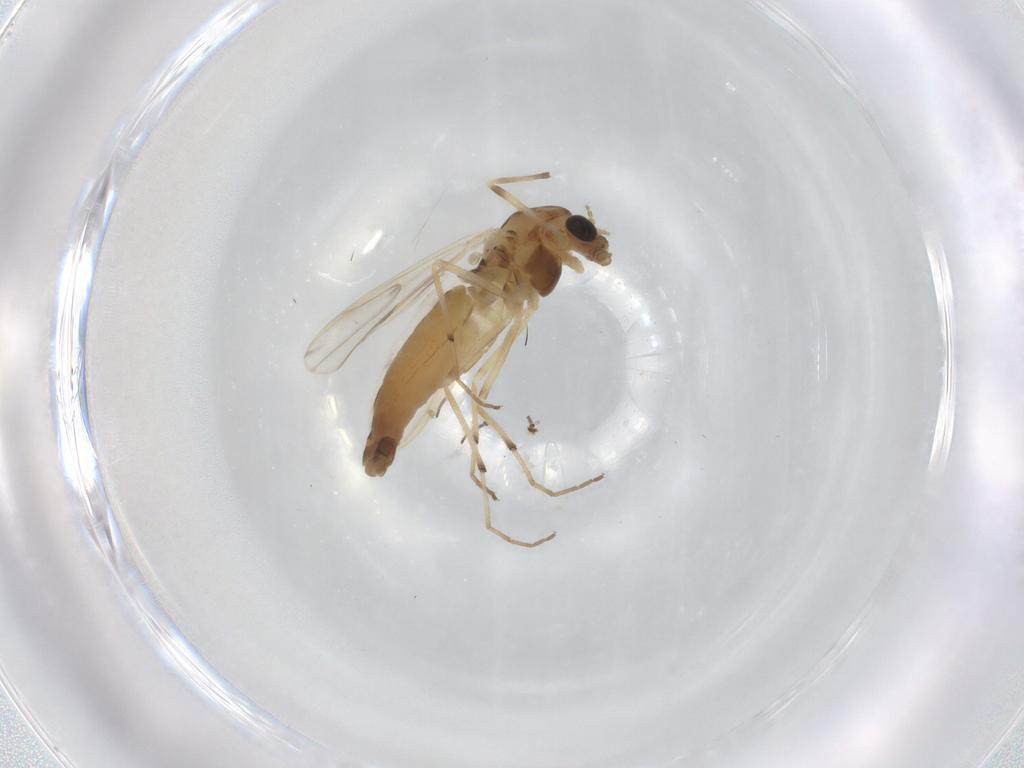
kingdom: Animalia
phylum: Arthropoda
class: Insecta
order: Diptera
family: Chironomidae
